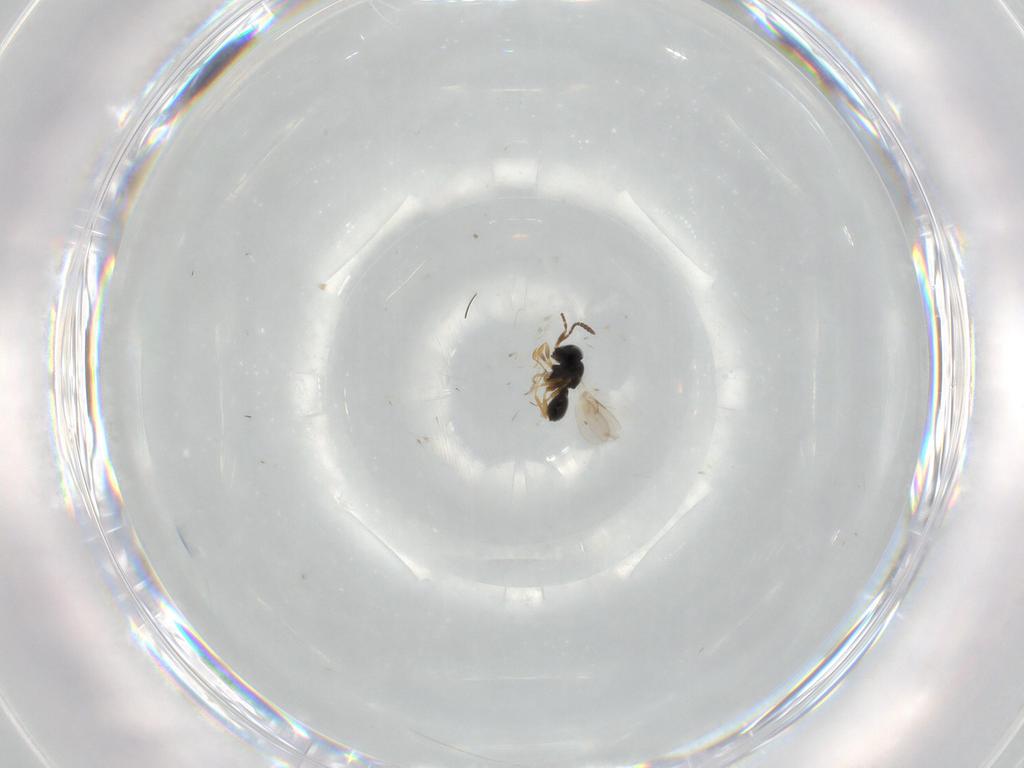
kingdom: Animalia
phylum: Arthropoda
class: Insecta
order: Hymenoptera
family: Scelionidae
